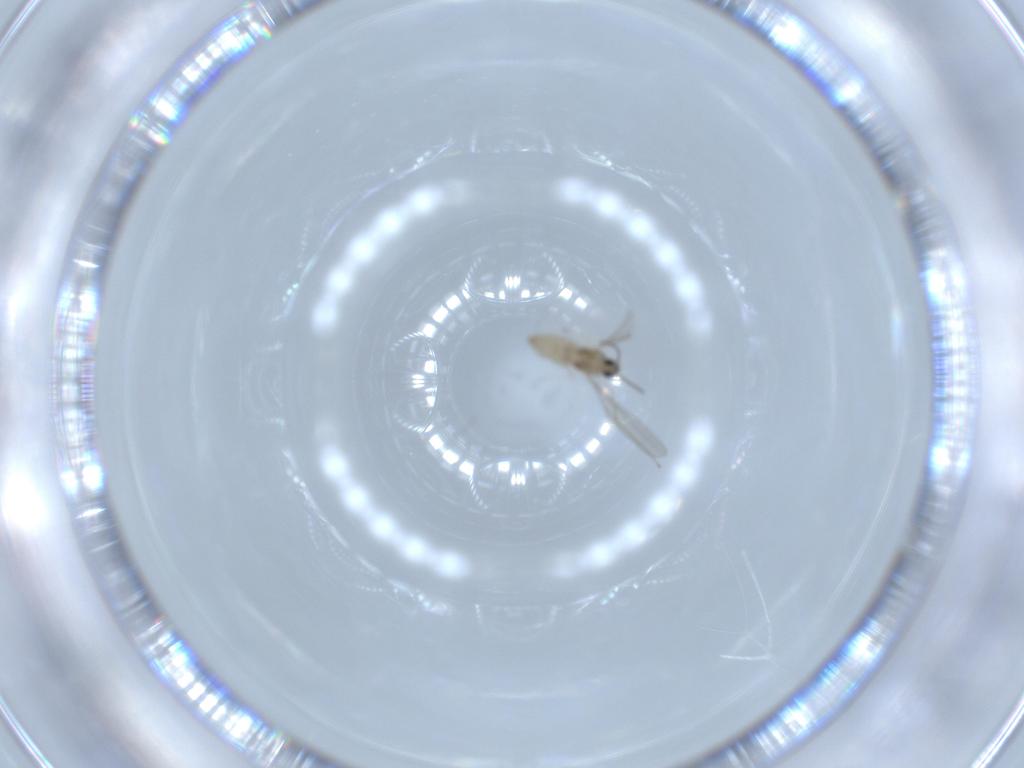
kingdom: Animalia
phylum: Arthropoda
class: Insecta
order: Diptera
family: Cecidomyiidae
